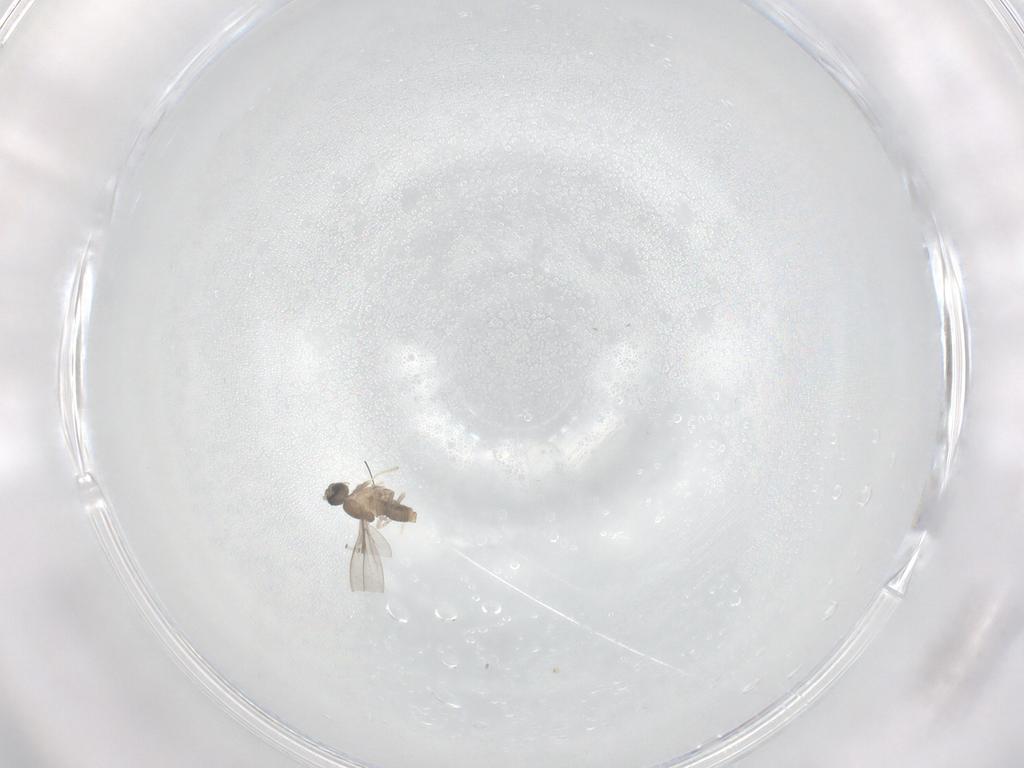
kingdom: Animalia
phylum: Arthropoda
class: Insecta
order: Diptera
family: Cecidomyiidae
